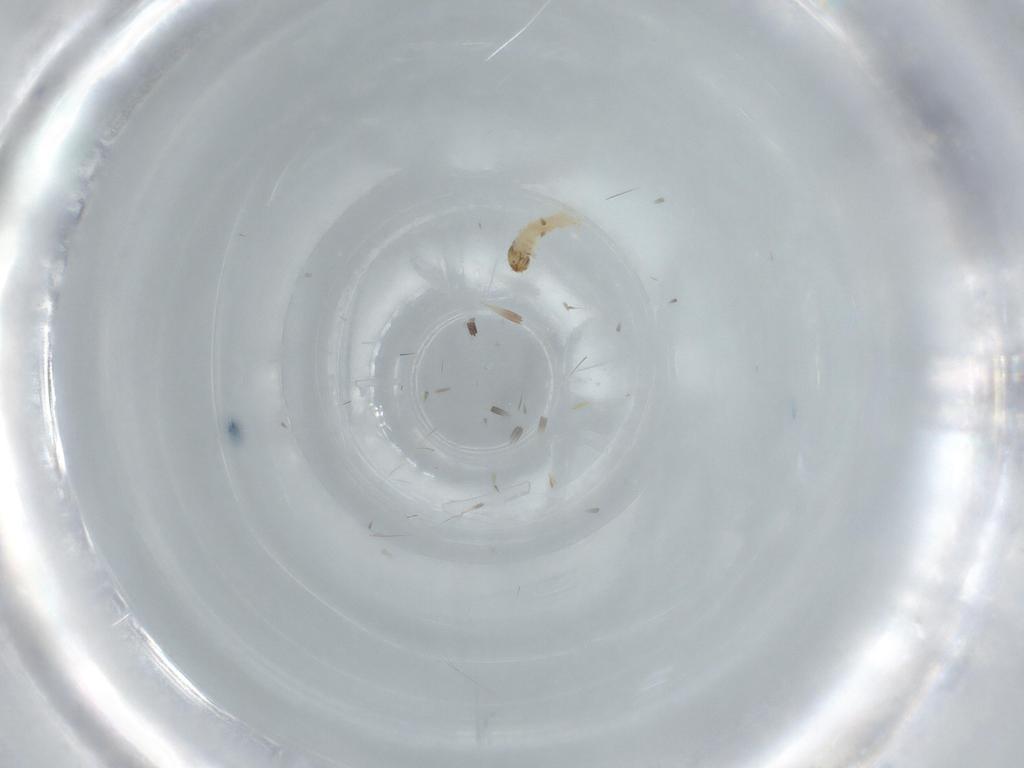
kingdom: Animalia
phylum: Arthropoda
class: Insecta
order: Lepidoptera
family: Tineidae
